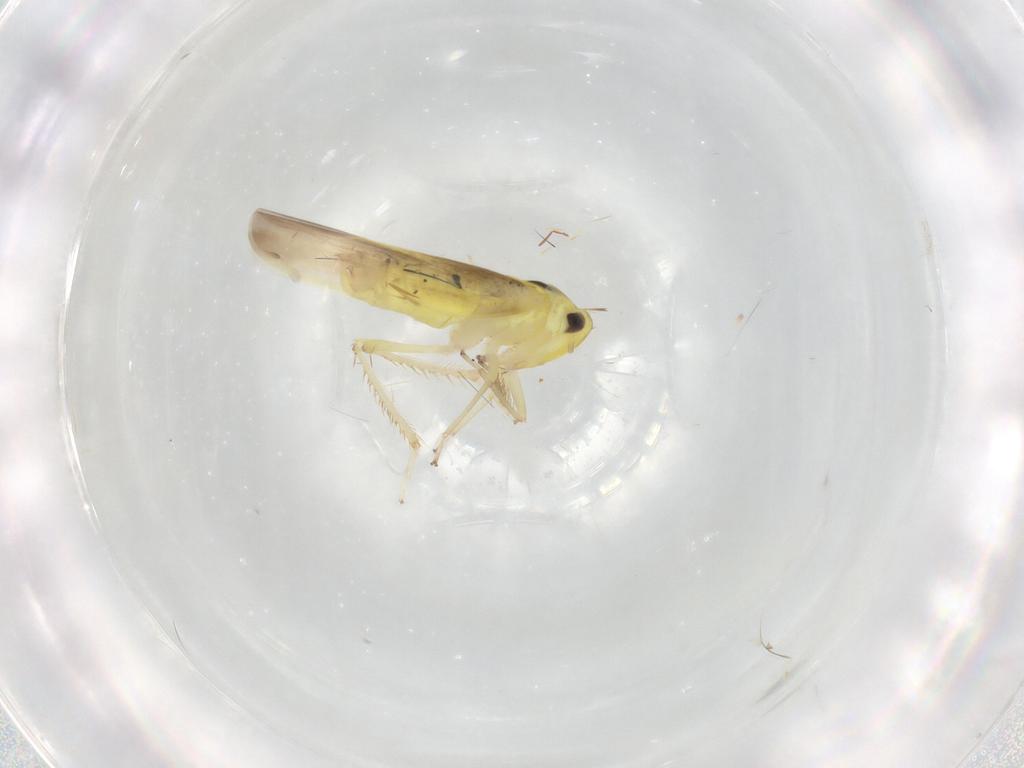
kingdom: Animalia
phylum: Arthropoda
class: Insecta
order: Hemiptera
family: Cicadellidae
